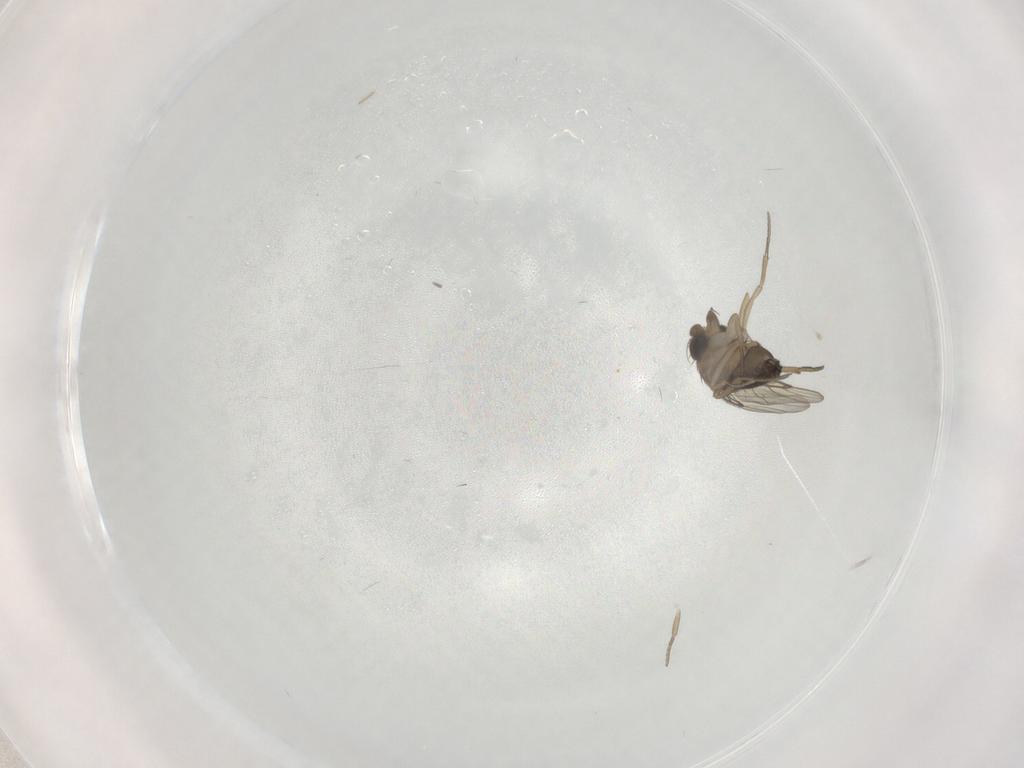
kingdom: Animalia
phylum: Arthropoda
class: Insecta
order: Diptera
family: Phoridae
